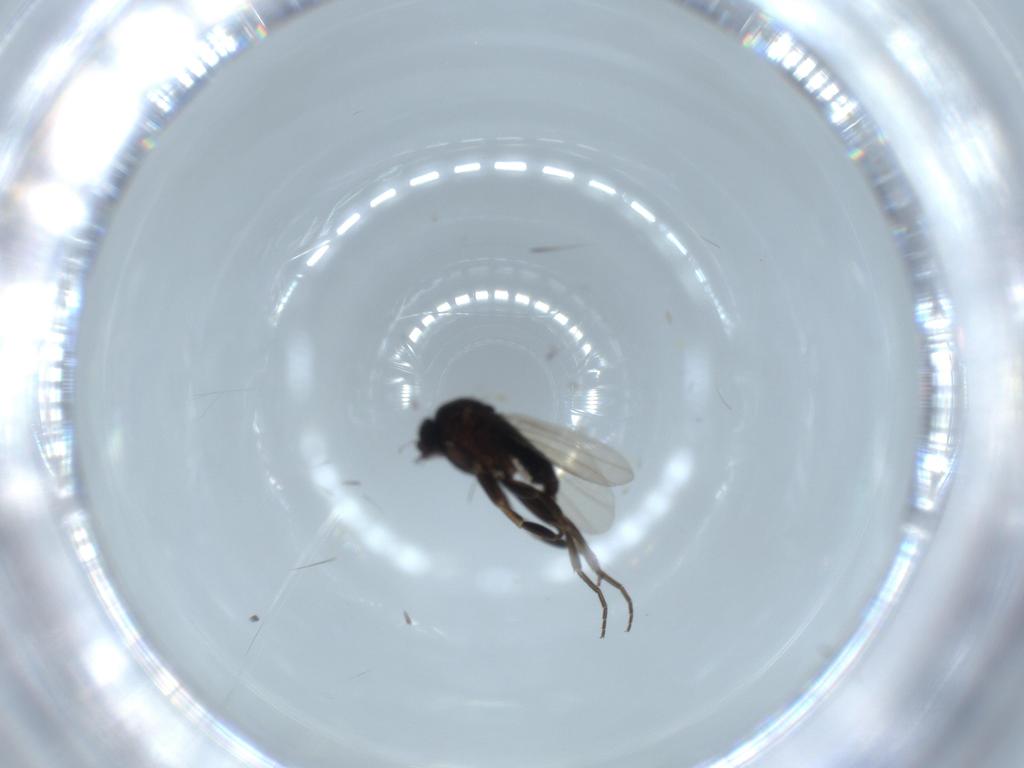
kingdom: Animalia
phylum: Arthropoda
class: Insecta
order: Diptera
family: Phoridae
